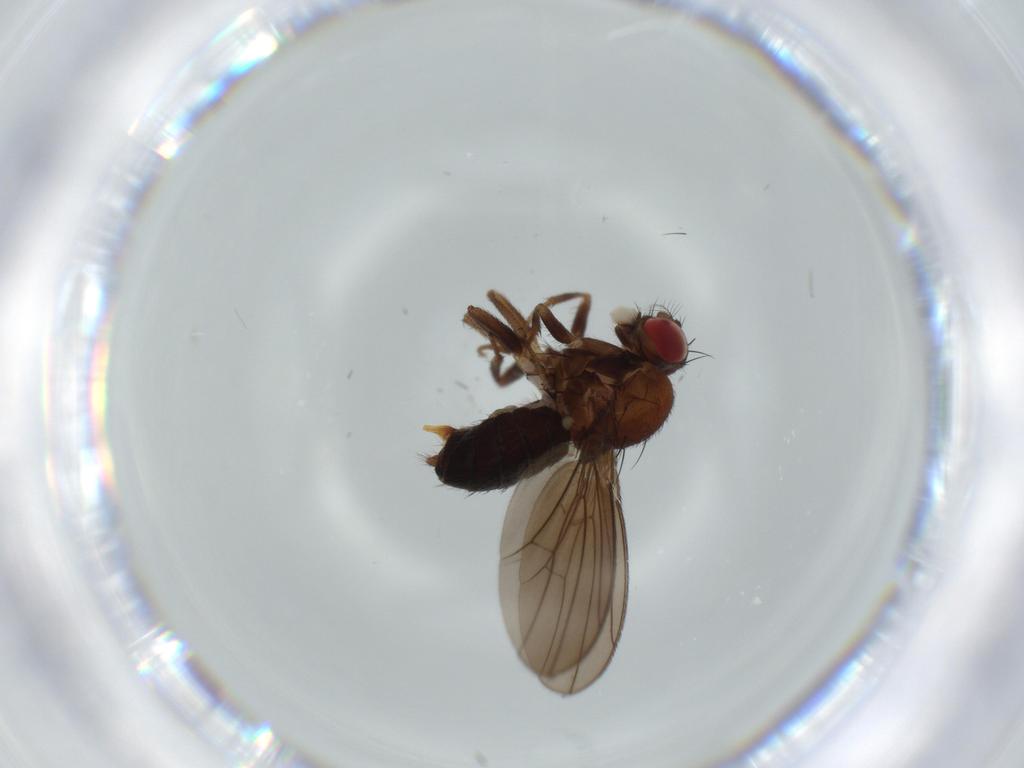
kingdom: Animalia
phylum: Arthropoda
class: Insecta
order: Diptera
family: Drosophilidae
